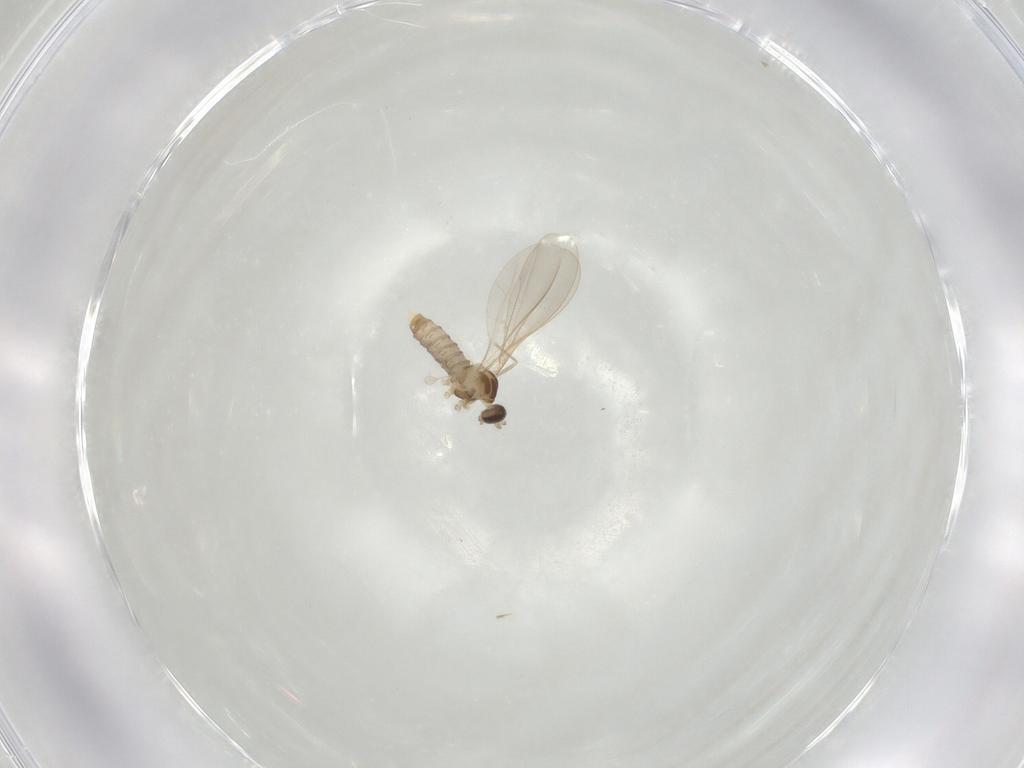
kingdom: Animalia
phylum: Arthropoda
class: Insecta
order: Diptera
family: Cecidomyiidae
